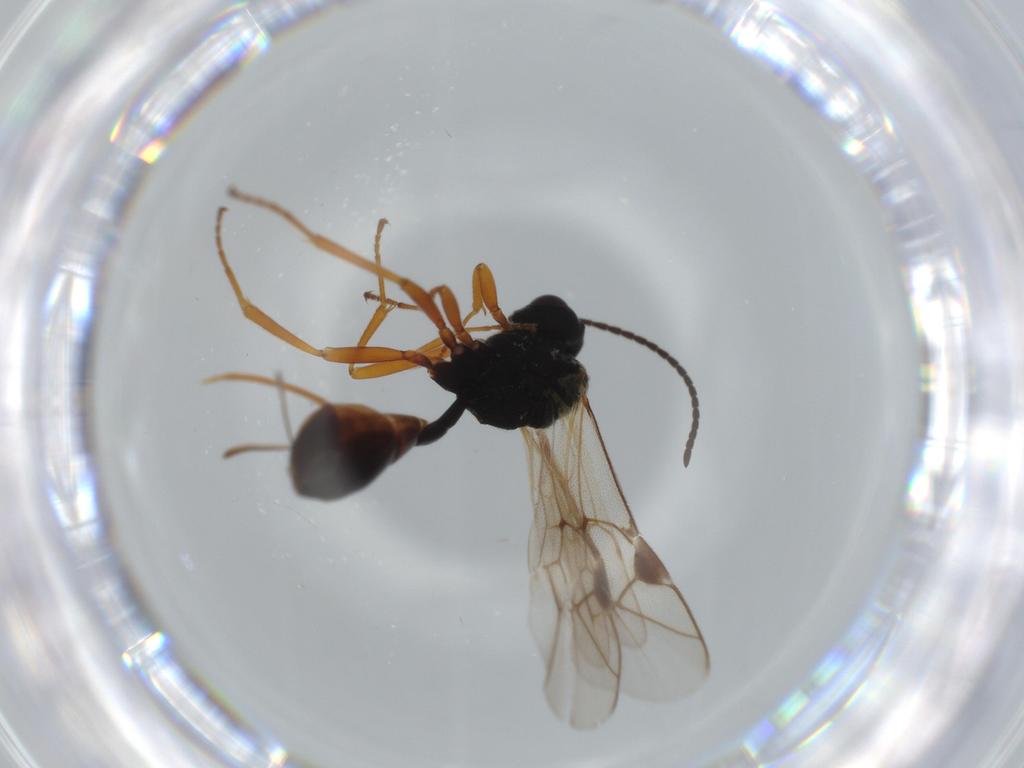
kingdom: Animalia
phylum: Arthropoda
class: Insecta
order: Hymenoptera
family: Ichneumonidae
